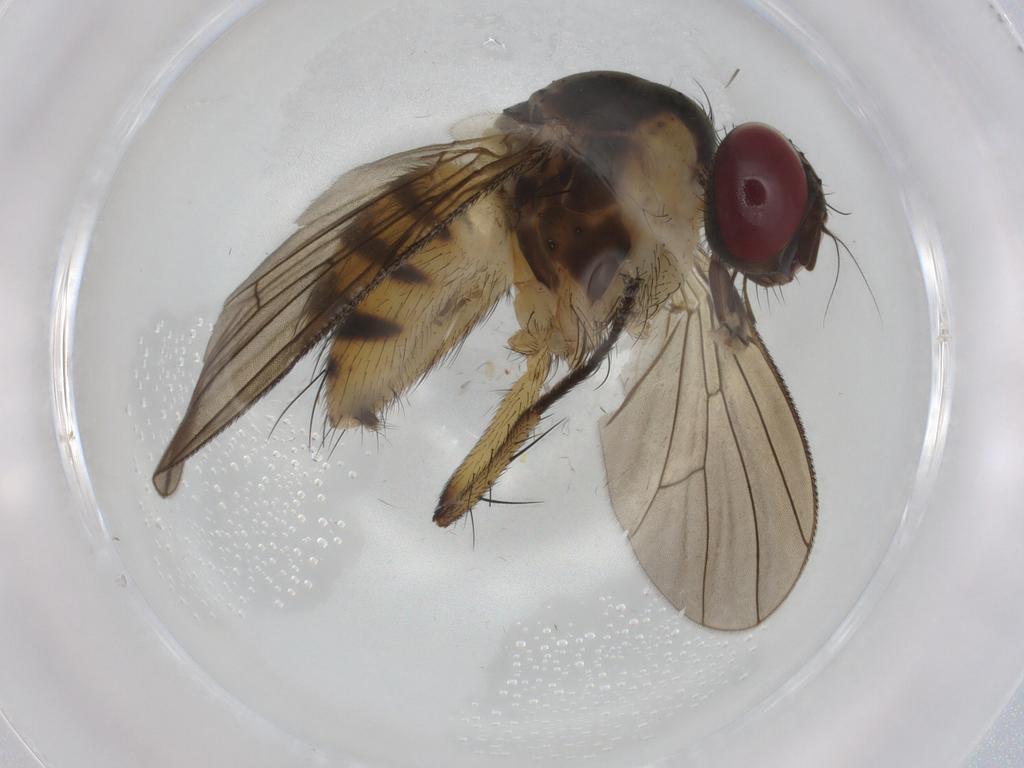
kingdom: Animalia
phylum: Arthropoda
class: Insecta
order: Diptera
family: Muscidae
